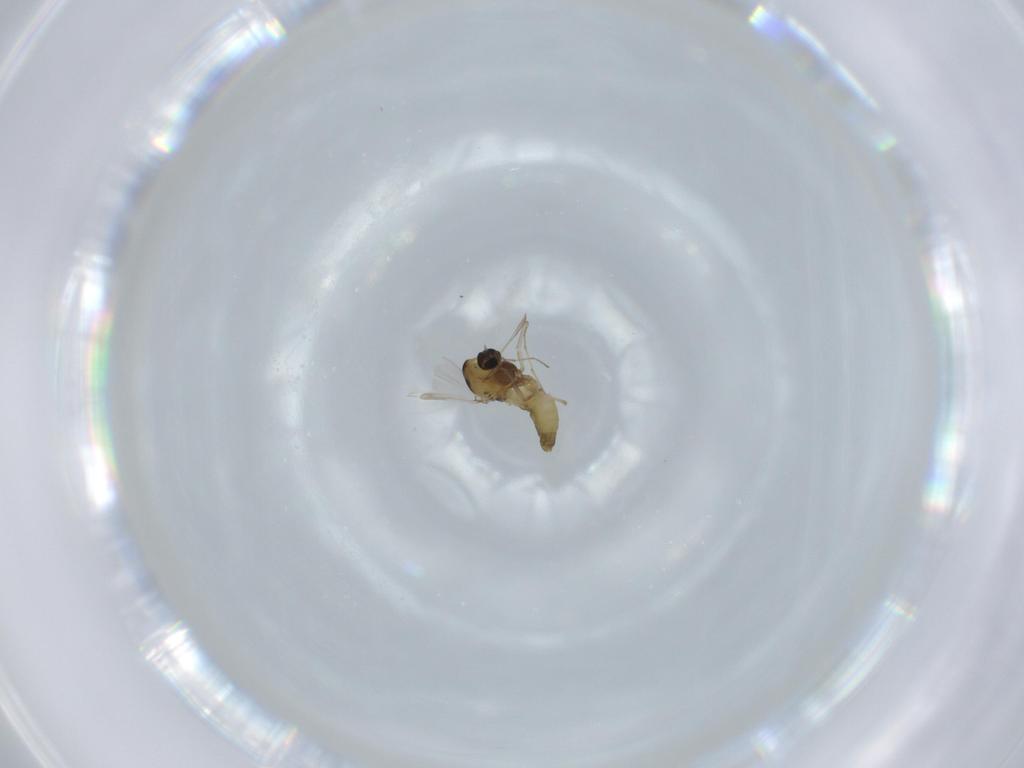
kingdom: Animalia
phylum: Arthropoda
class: Insecta
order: Diptera
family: Chironomidae
